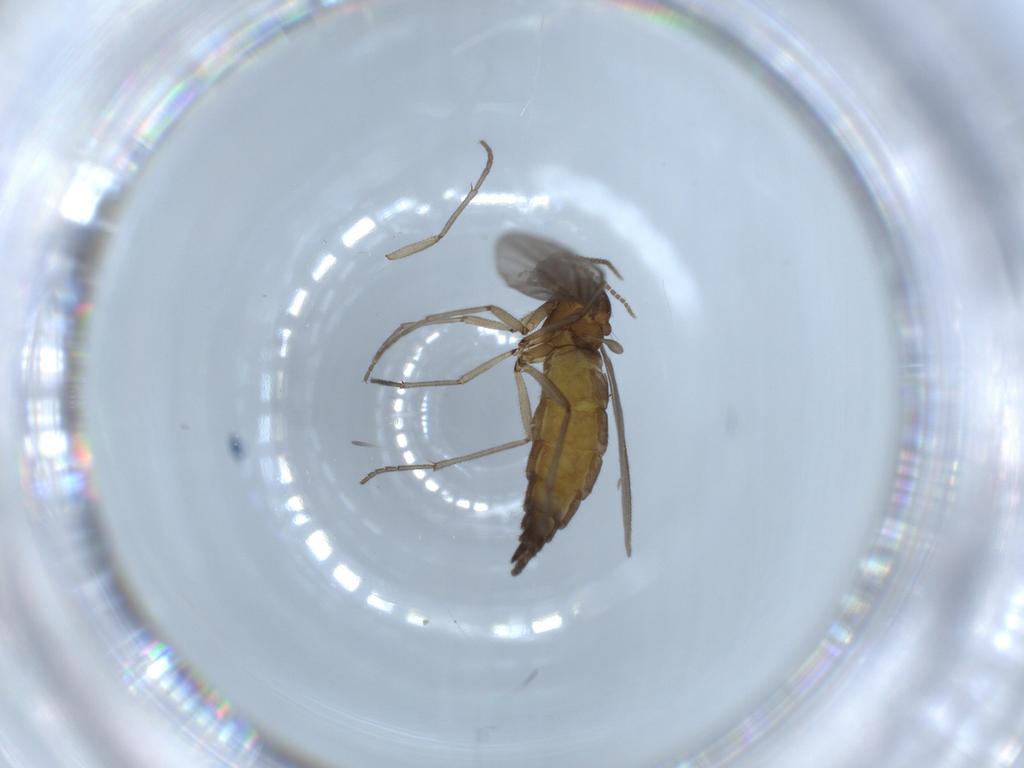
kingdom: Animalia
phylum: Arthropoda
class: Insecta
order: Diptera
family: Sciaridae
